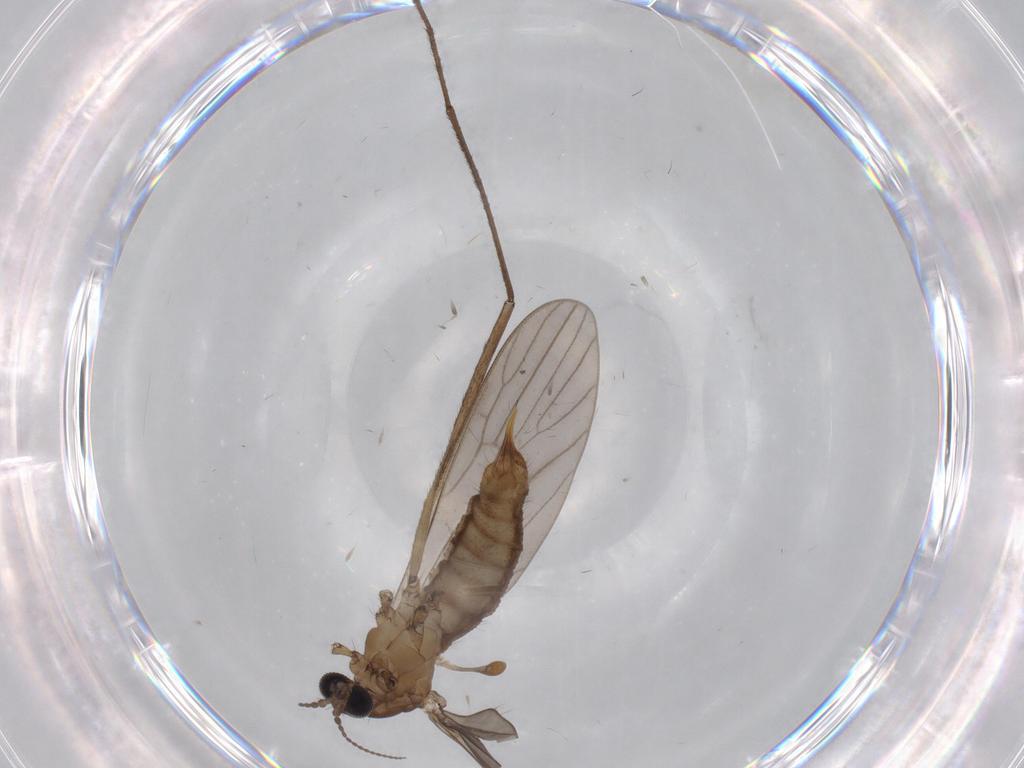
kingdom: Animalia
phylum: Arthropoda
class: Insecta
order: Diptera
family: Limoniidae
